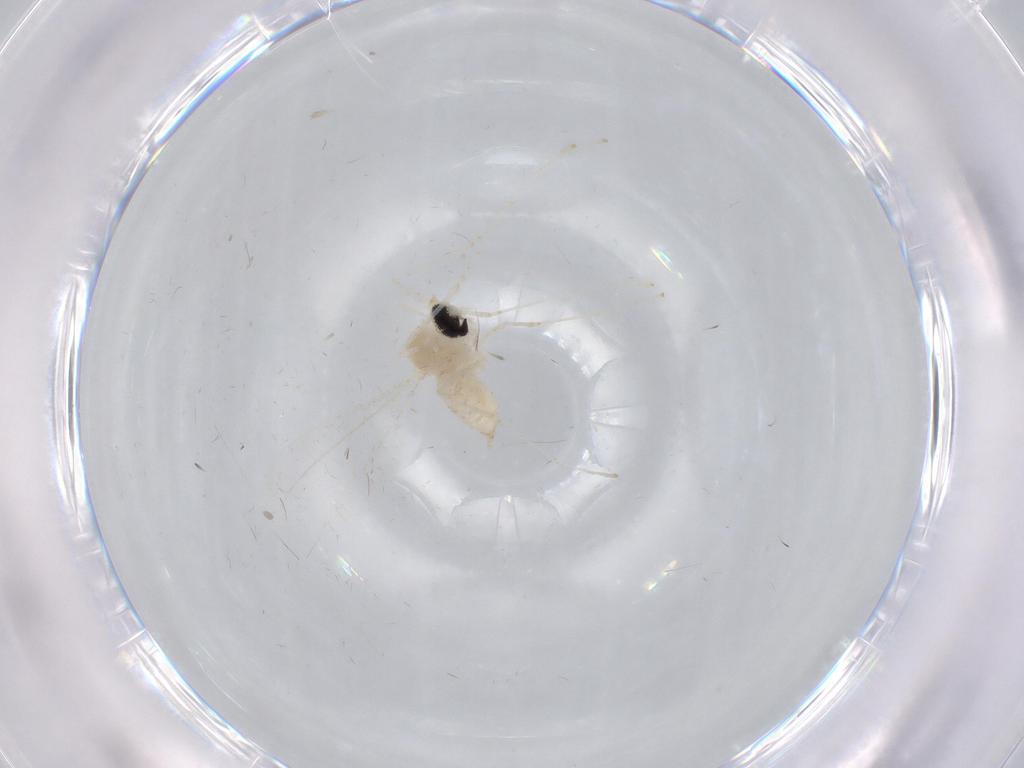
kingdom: Animalia
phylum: Arthropoda
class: Insecta
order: Diptera
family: Cecidomyiidae
